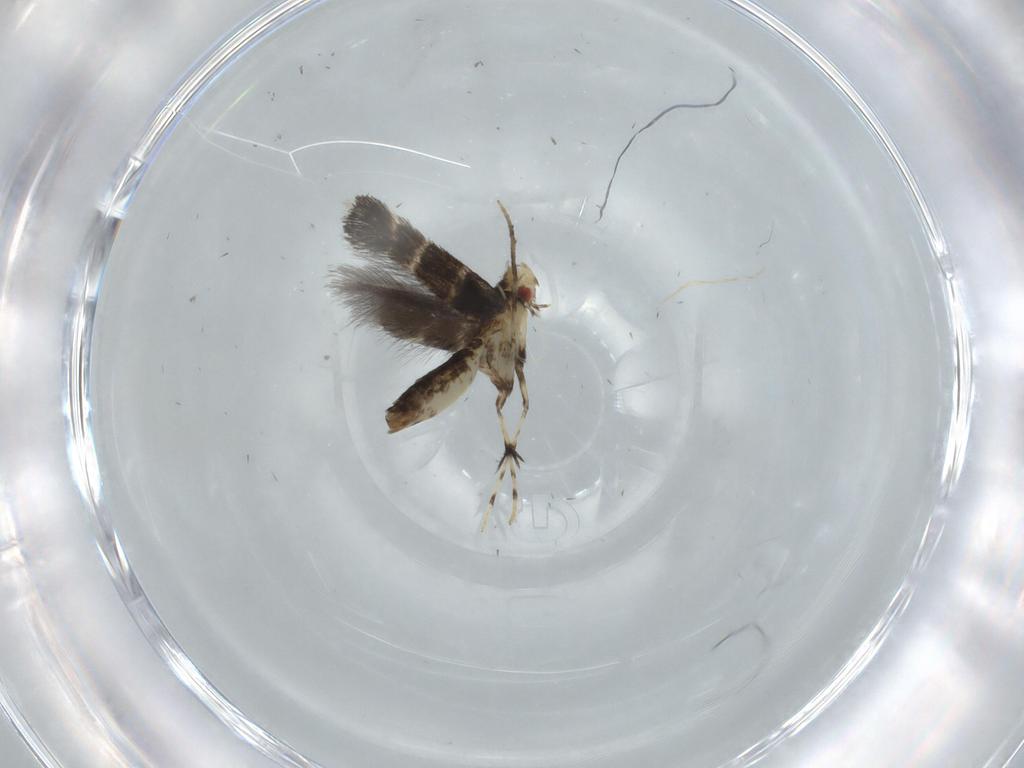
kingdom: Animalia
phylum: Arthropoda
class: Insecta
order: Lepidoptera
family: Gracillariidae
